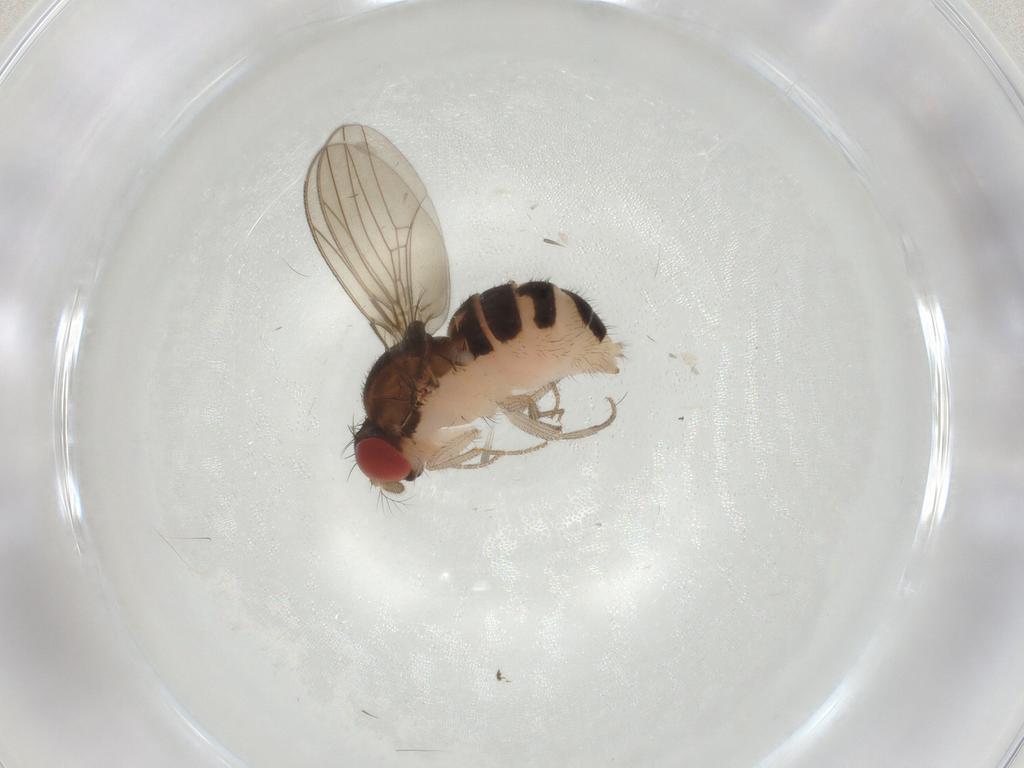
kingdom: Animalia
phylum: Arthropoda
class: Insecta
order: Diptera
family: Drosophilidae
